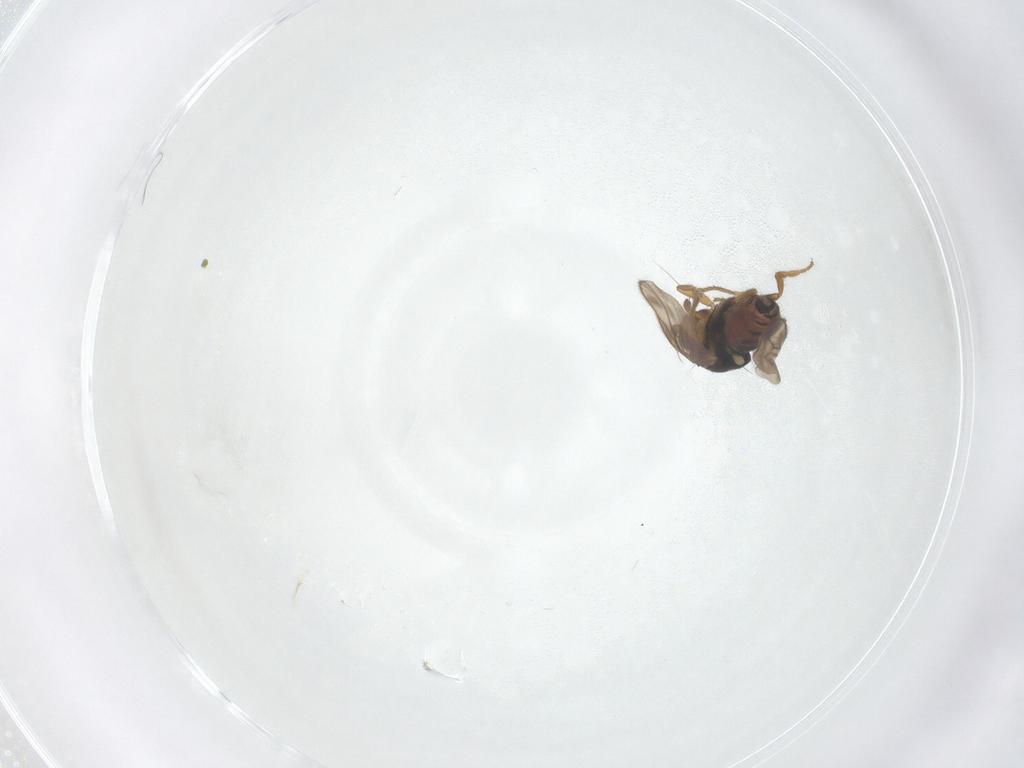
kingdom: Animalia
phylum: Arthropoda
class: Insecta
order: Diptera
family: Sphaeroceridae
